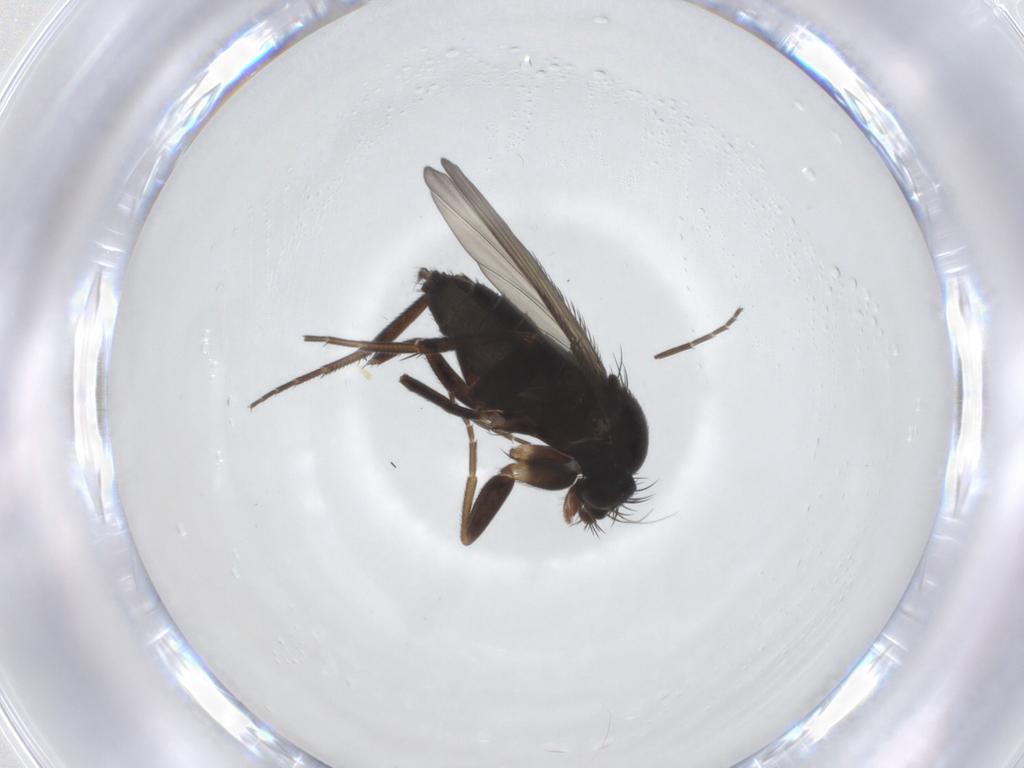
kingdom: Animalia
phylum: Arthropoda
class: Insecta
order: Diptera
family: Phoridae
